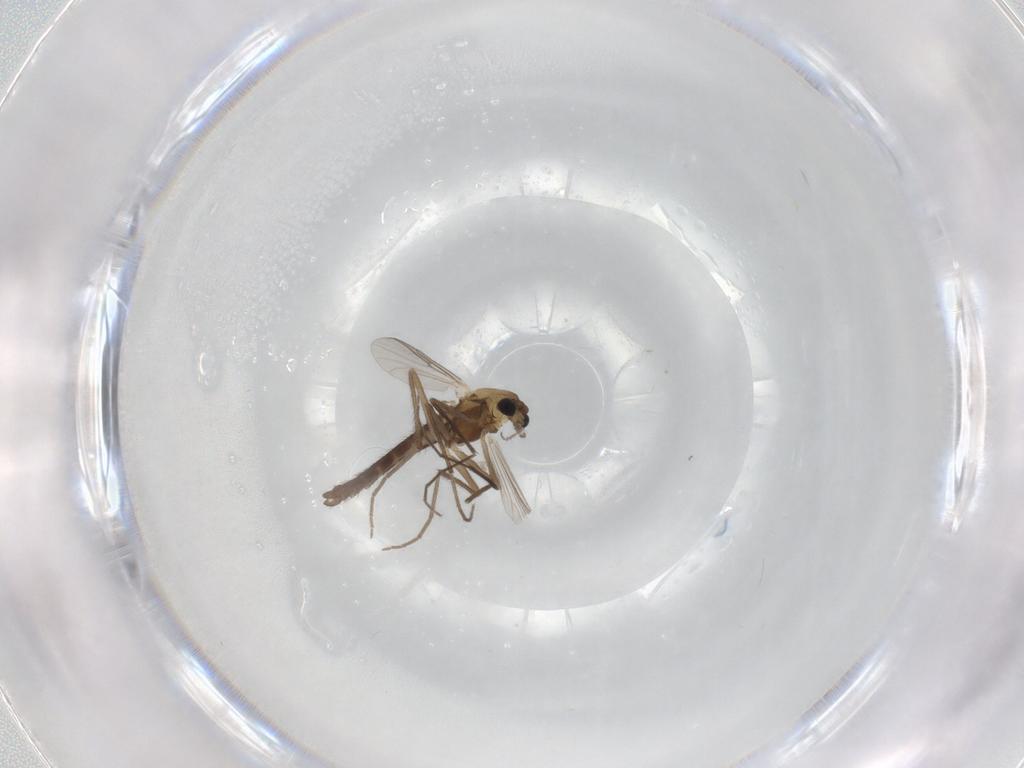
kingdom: Animalia
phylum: Arthropoda
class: Insecta
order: Diptera
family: Chironomidae
